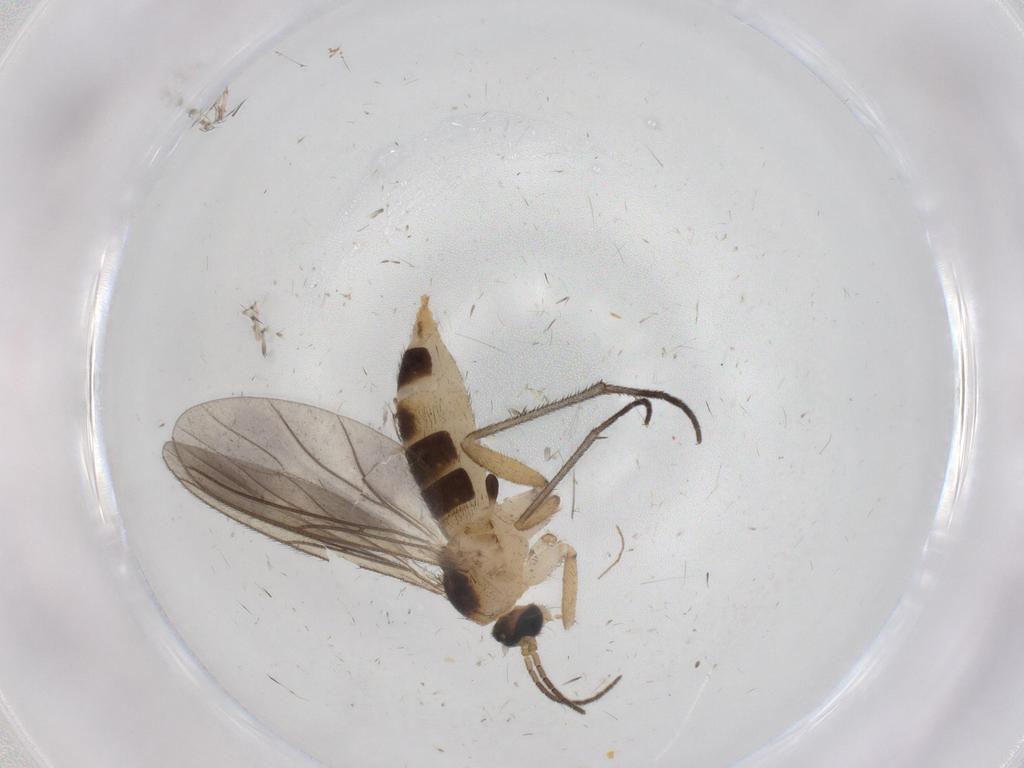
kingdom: Animalia
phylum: Arthropoda
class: Insecta
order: Diptera
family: Sciaridae
